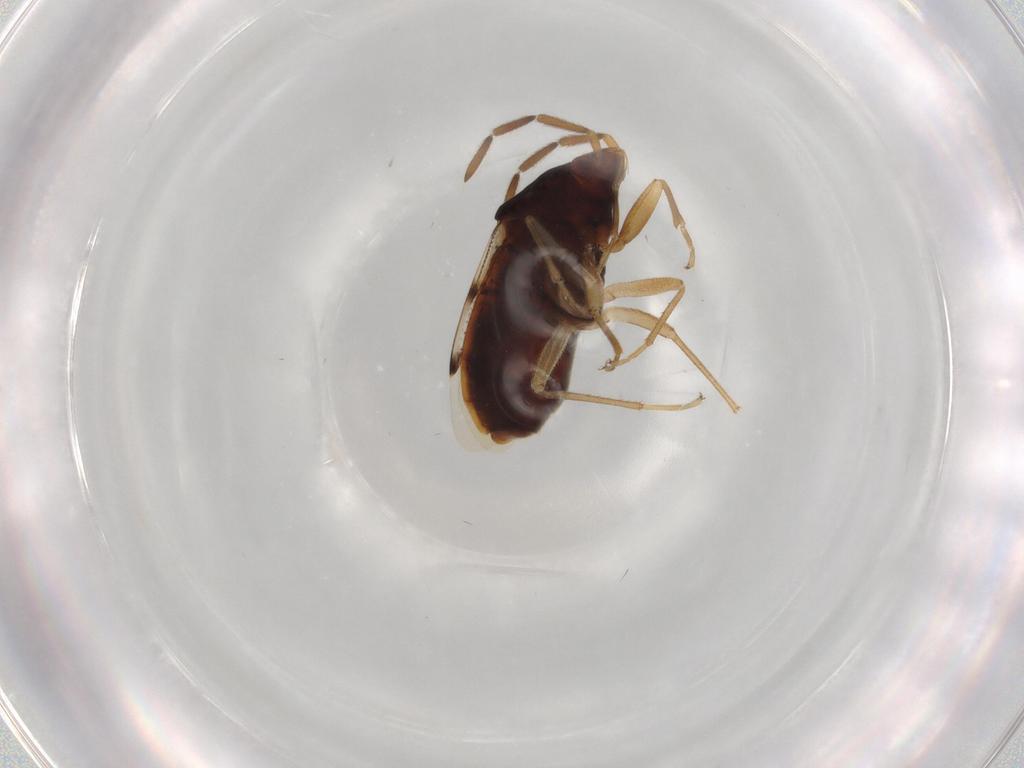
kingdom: Animalia
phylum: Arthropoda
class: Insecta
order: Hemiptera
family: Rhyparochromidae
